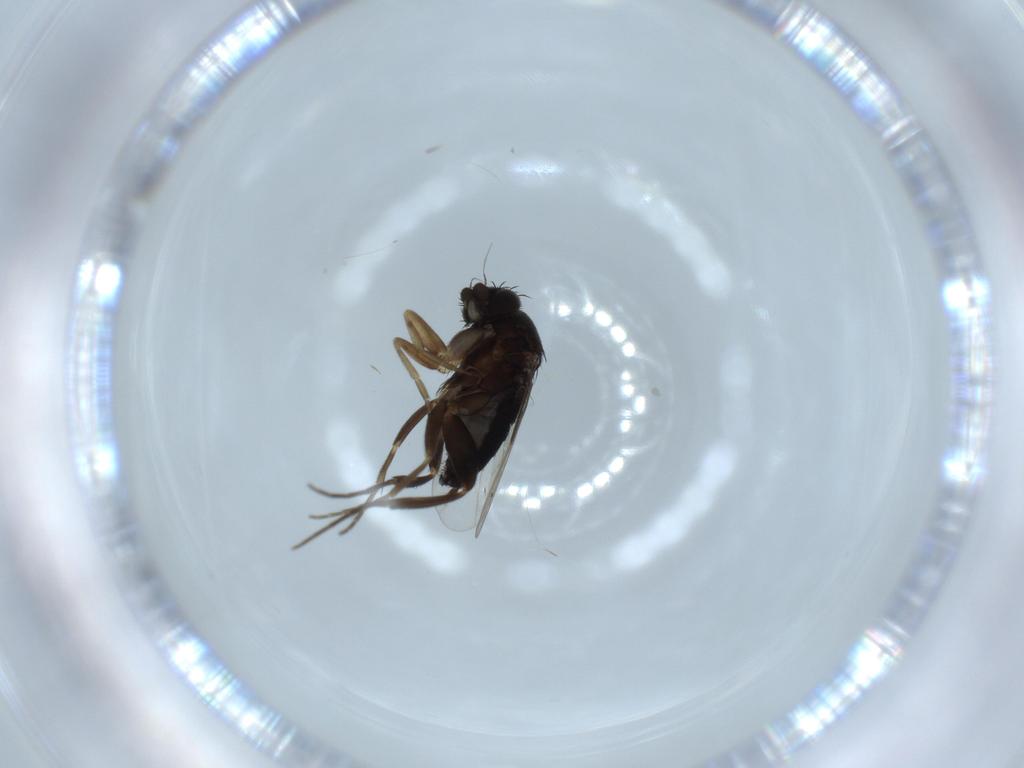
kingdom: Animalia
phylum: Arthropoda
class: Insecta
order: Diptera
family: Phoridae
